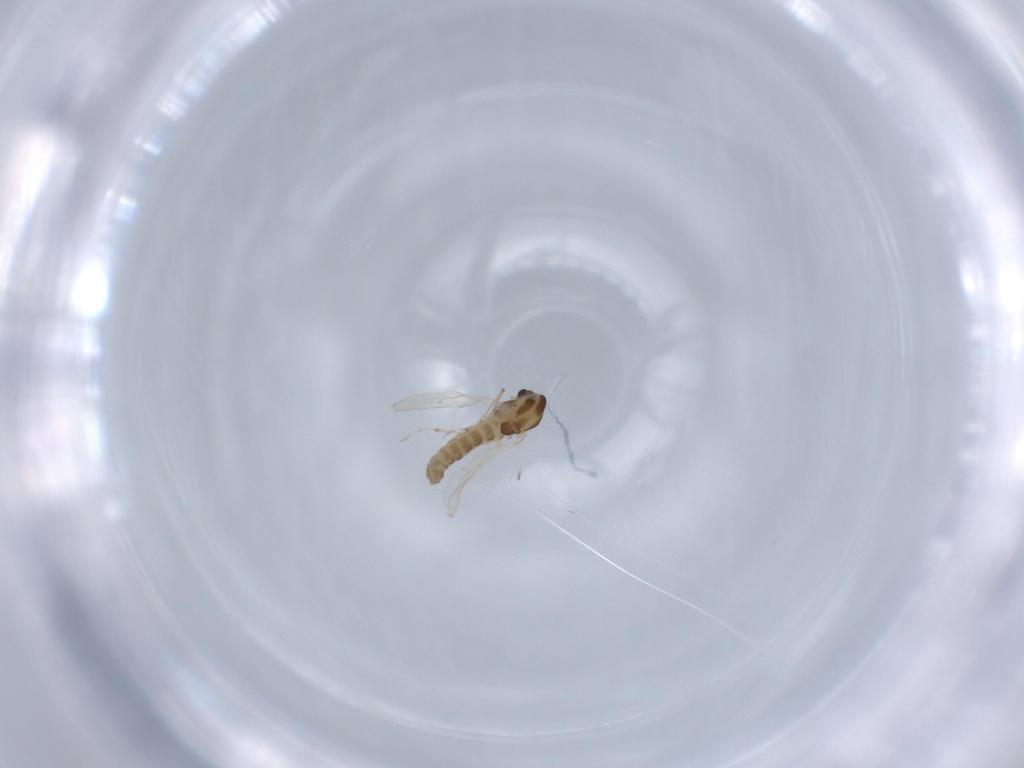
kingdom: Animalia
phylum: Arthropoda
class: Insecta
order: Diptera
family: Chironomidae
